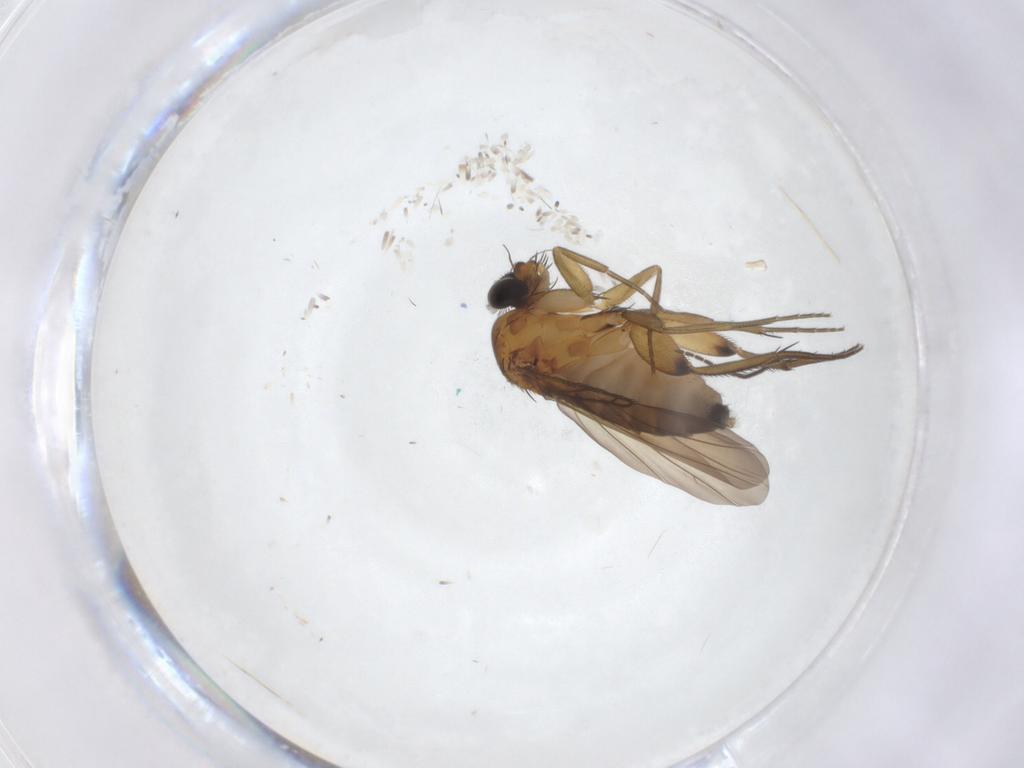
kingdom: Animalia
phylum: Arthropoda
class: Insecta
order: Diptera
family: Phoridae
